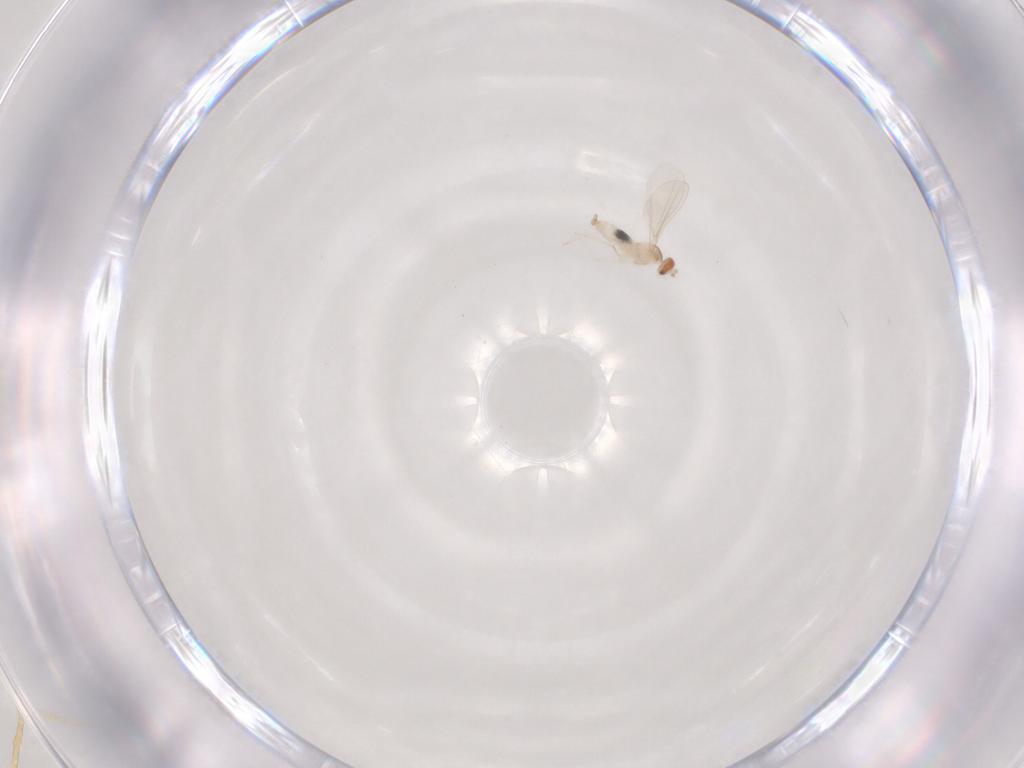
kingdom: Animalia
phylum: Arthropoda
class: Insecta
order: Diptera
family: Cecidomyiidae
